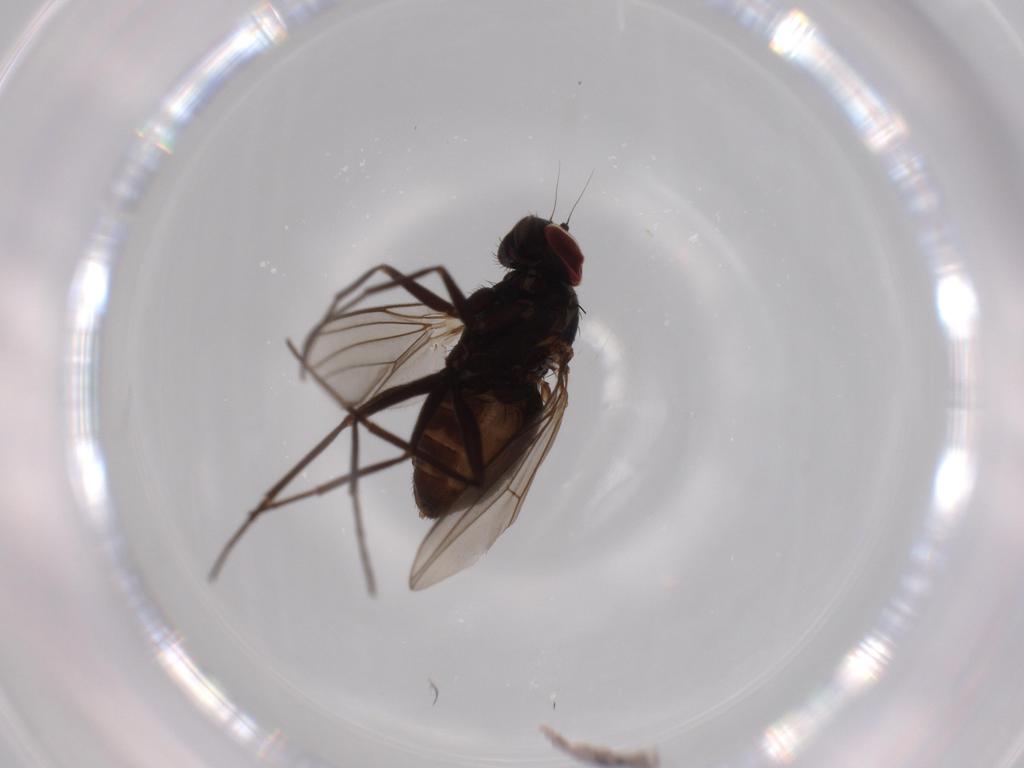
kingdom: Animalia
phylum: Arthropoda
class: Insecta
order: Diptera
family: Dolichopodidae
